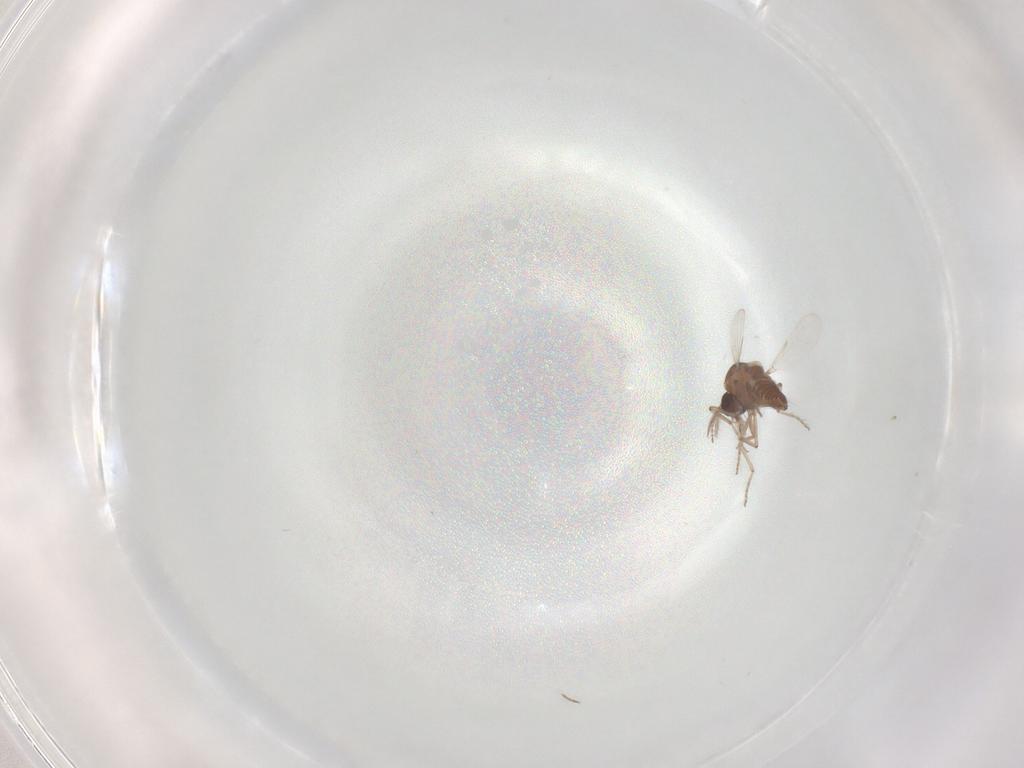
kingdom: Animalia
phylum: Arthropoda
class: Insecta
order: Diptera
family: Ceratopogonidae
